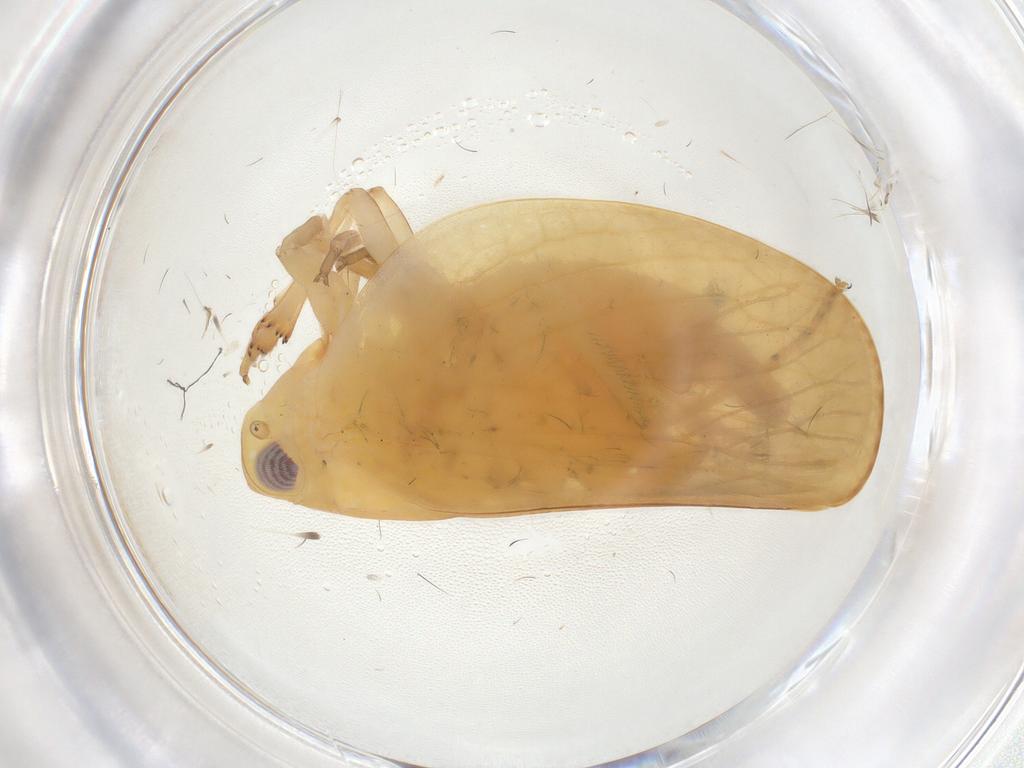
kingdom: Animalia
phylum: Arthropoda
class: Insecta
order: Hemiptera
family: Acanaloniidae
